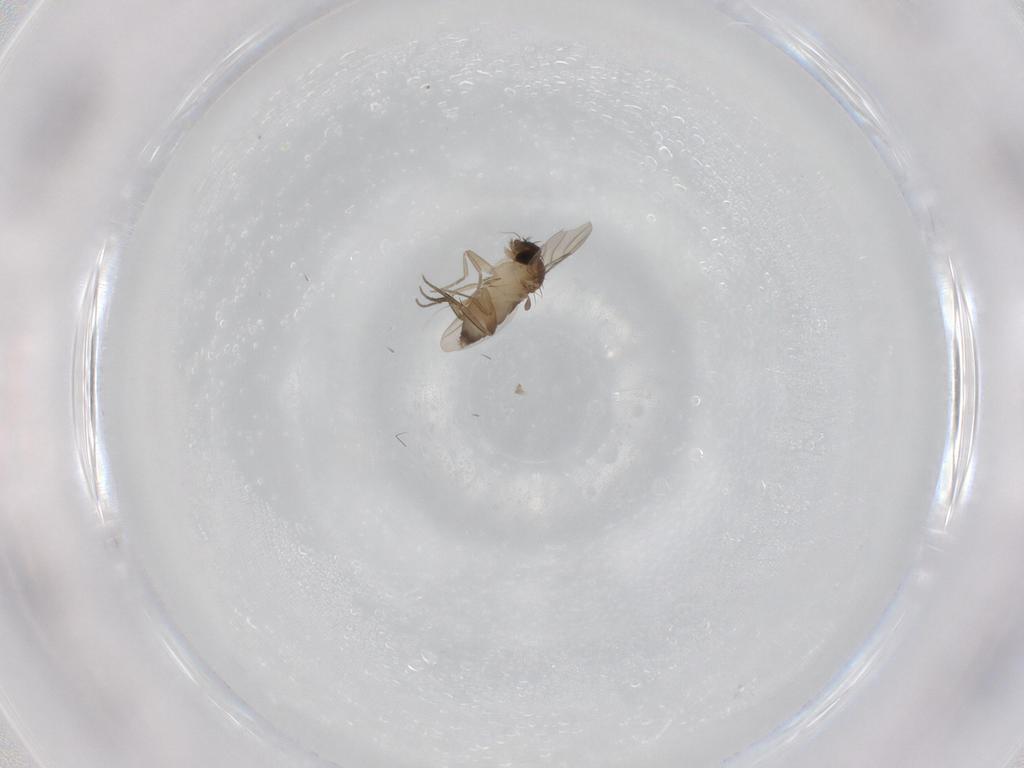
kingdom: Animalia
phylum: Arthropoda
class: Insecta
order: Diptera
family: Phoridae
